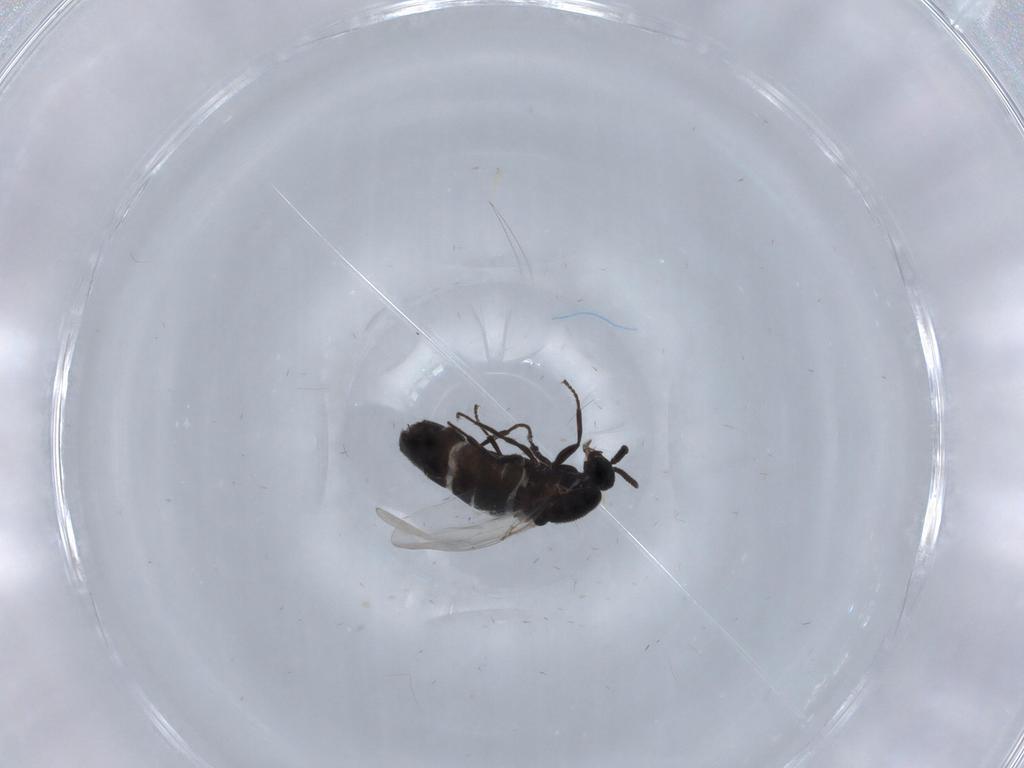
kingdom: Animalia
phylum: Arthropoda
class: Insecta
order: Diptera
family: Scatopsidae
